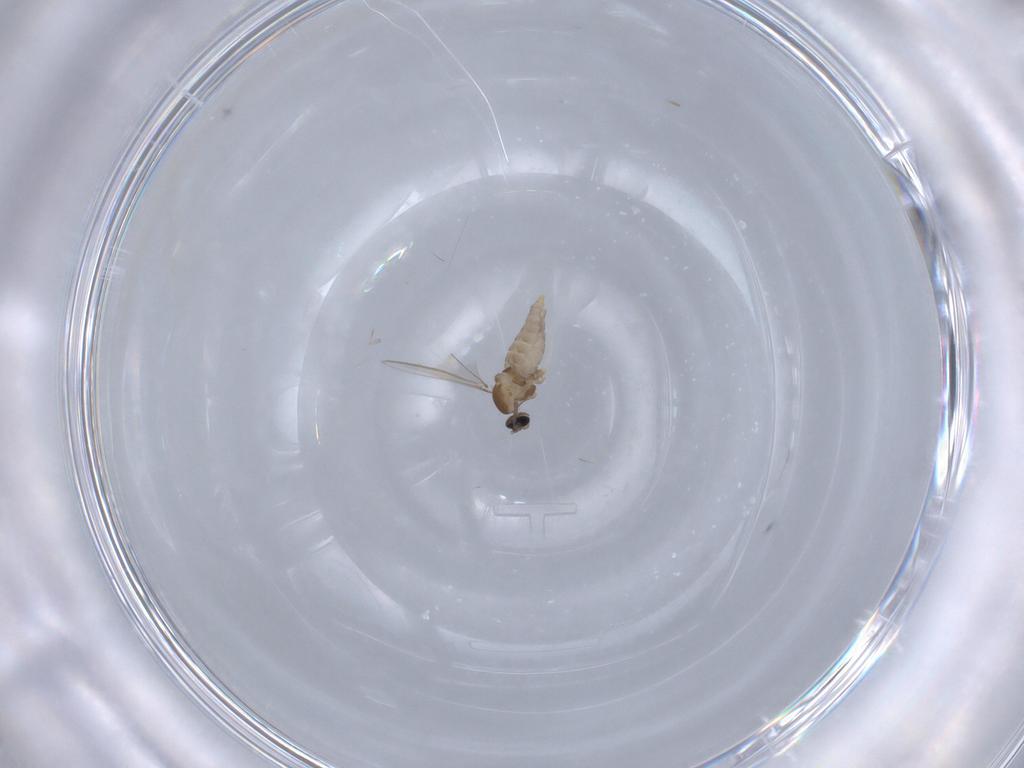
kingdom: Animalia
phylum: Arthropoda
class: Insecta
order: Diptera
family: Cecidomyiidae
